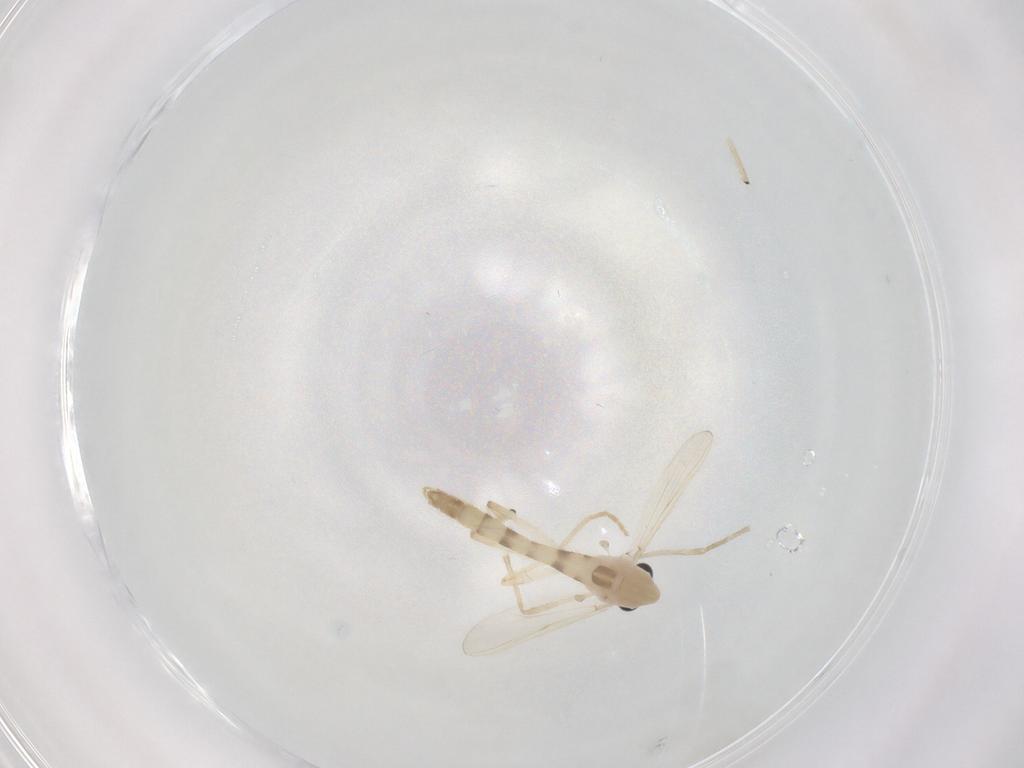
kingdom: Animalia
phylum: Arthropoda
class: Insecta
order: Diptera
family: Chironomidae
